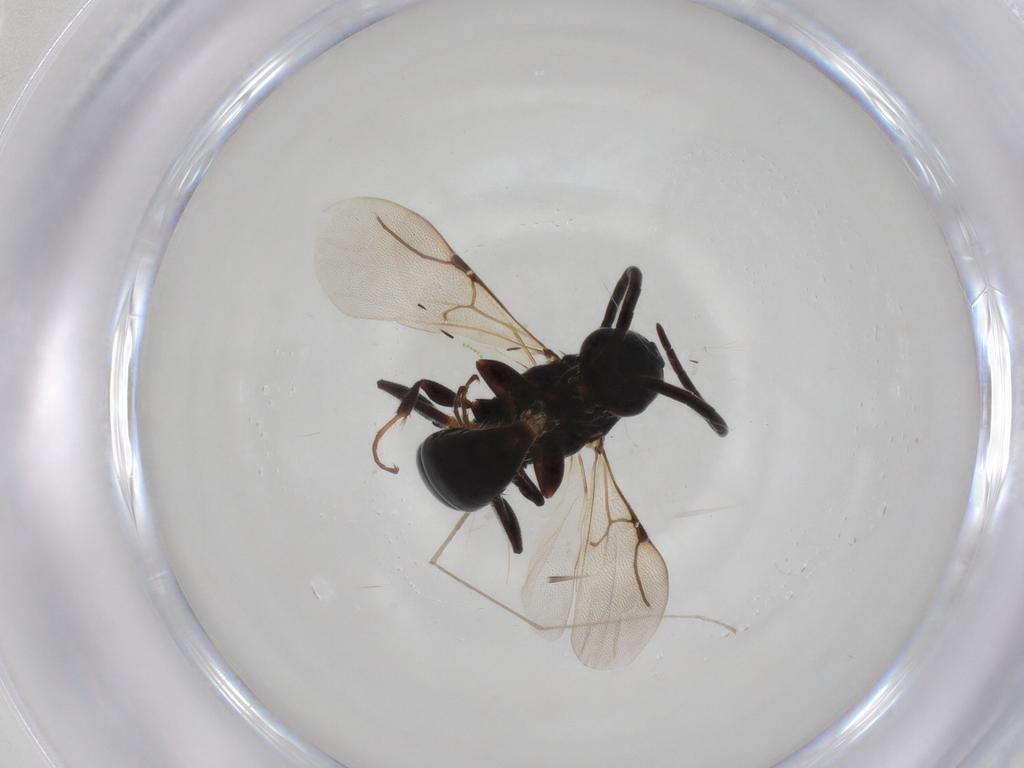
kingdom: Animalia
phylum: Arthropoda
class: Insecta
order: Hymenoptera
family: Bethylidae
